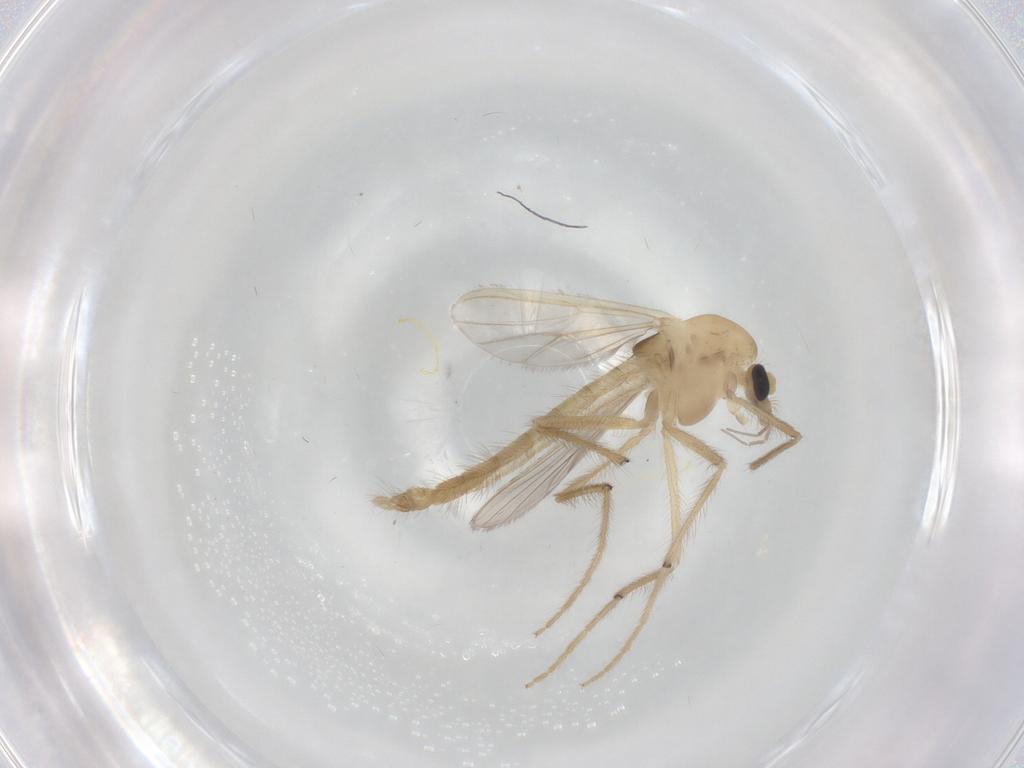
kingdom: Animalia
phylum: Arthropoda
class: Insecta
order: Diptera
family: Chironomidae
